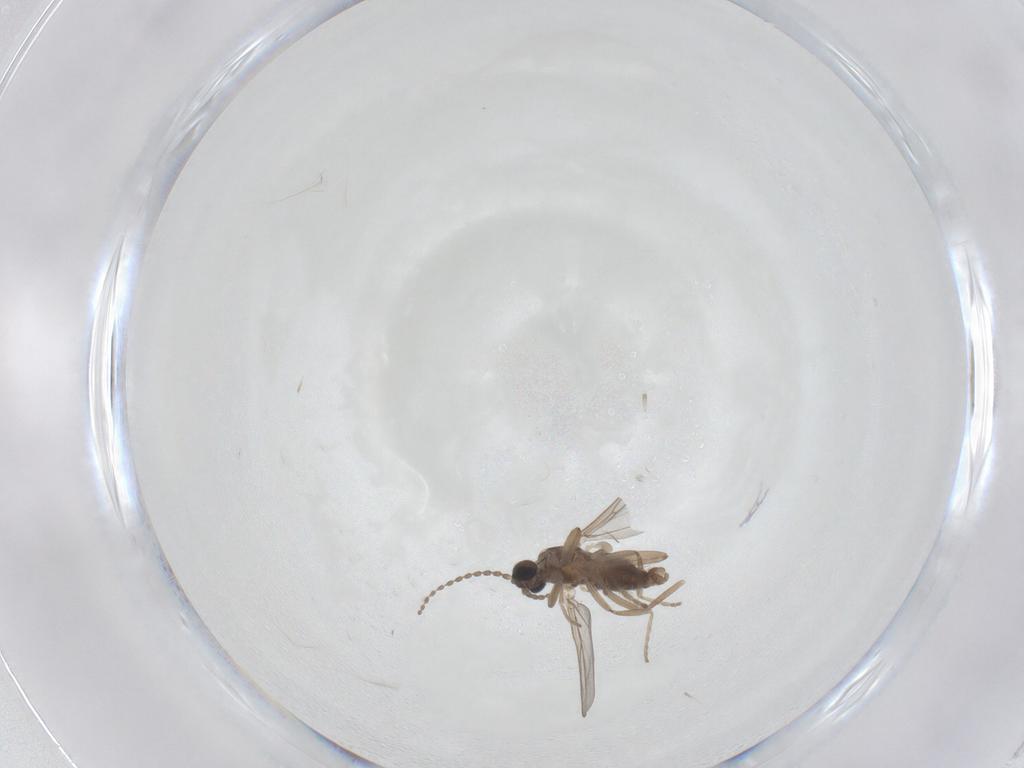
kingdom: Animalia
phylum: Arthropoda
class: Insecta
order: Diptera
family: Cecidomyiidae
